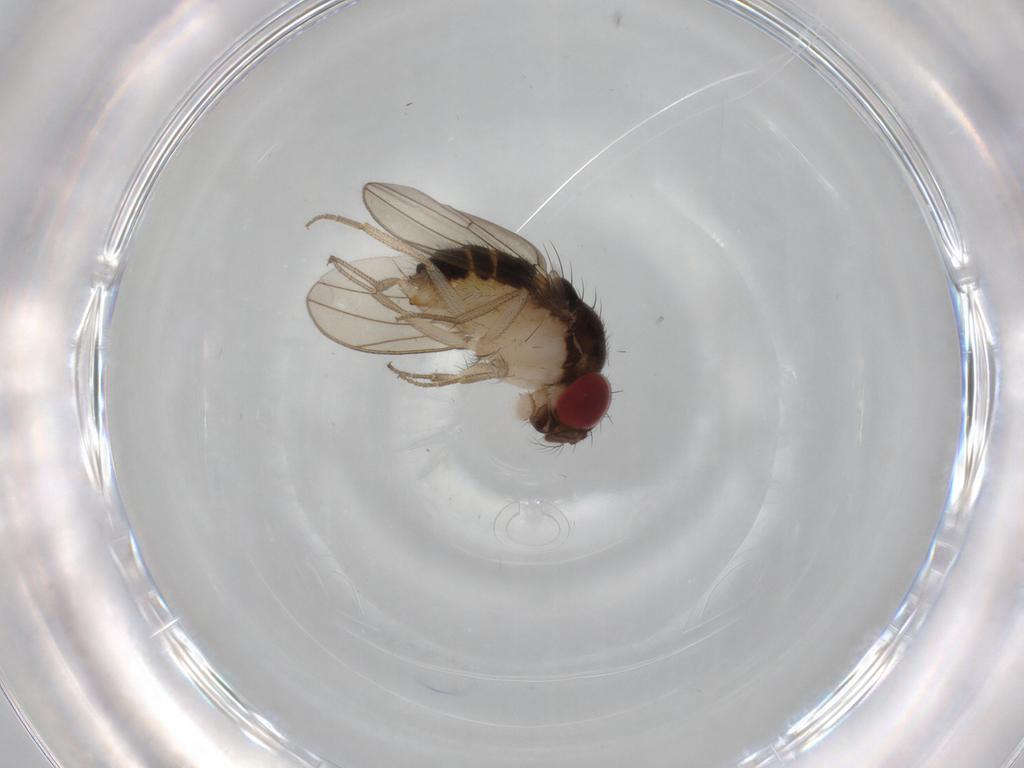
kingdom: Animalia
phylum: Arthropoda
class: Insecta
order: Diptera
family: Drosophilidae
